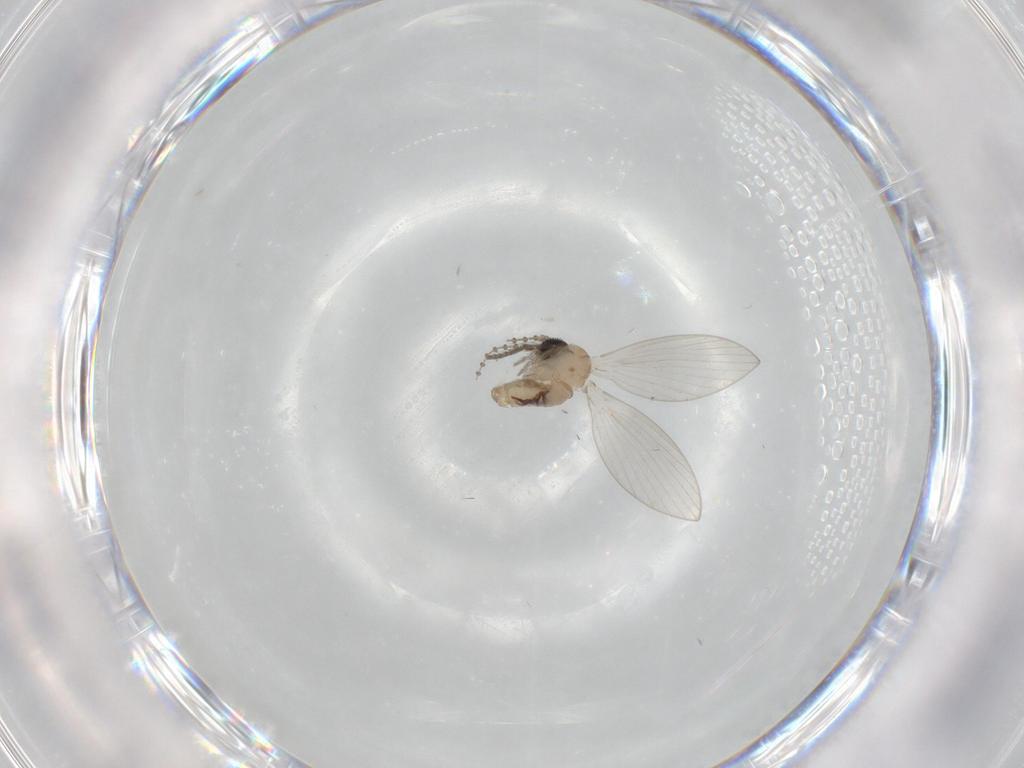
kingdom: Animalia
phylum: Arthropoda
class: Insecta
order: Diptera
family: Psychodidae
